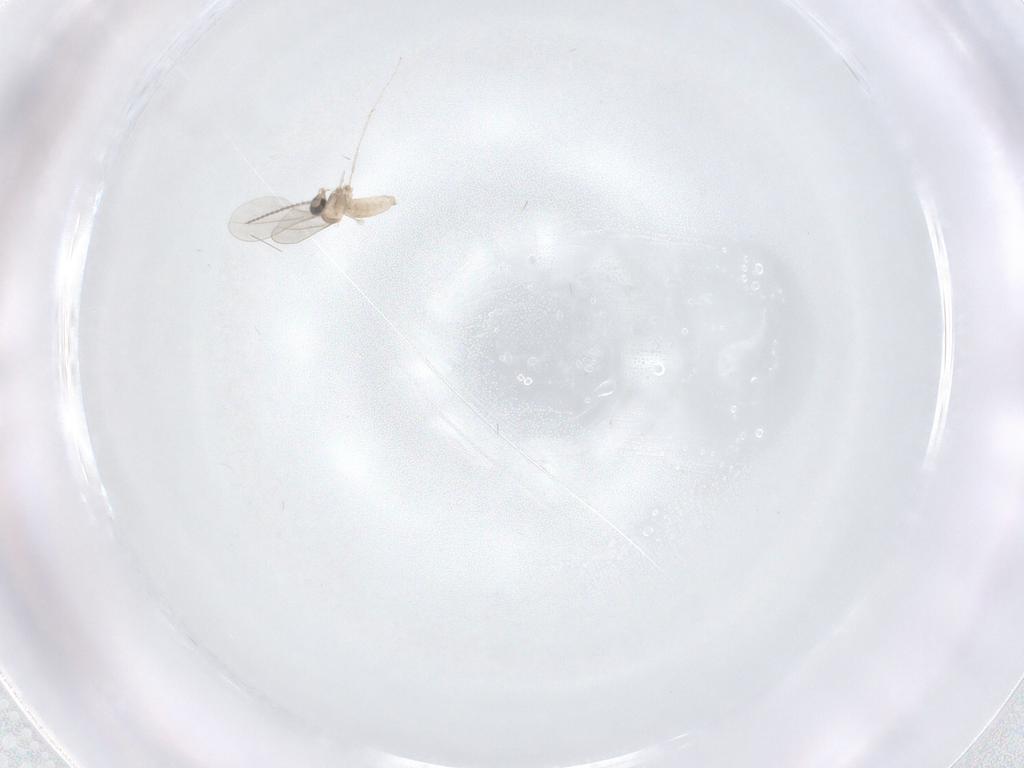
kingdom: Animalia
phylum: Arthropoda
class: Insecta
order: Diptera
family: Cecidomyiidae
